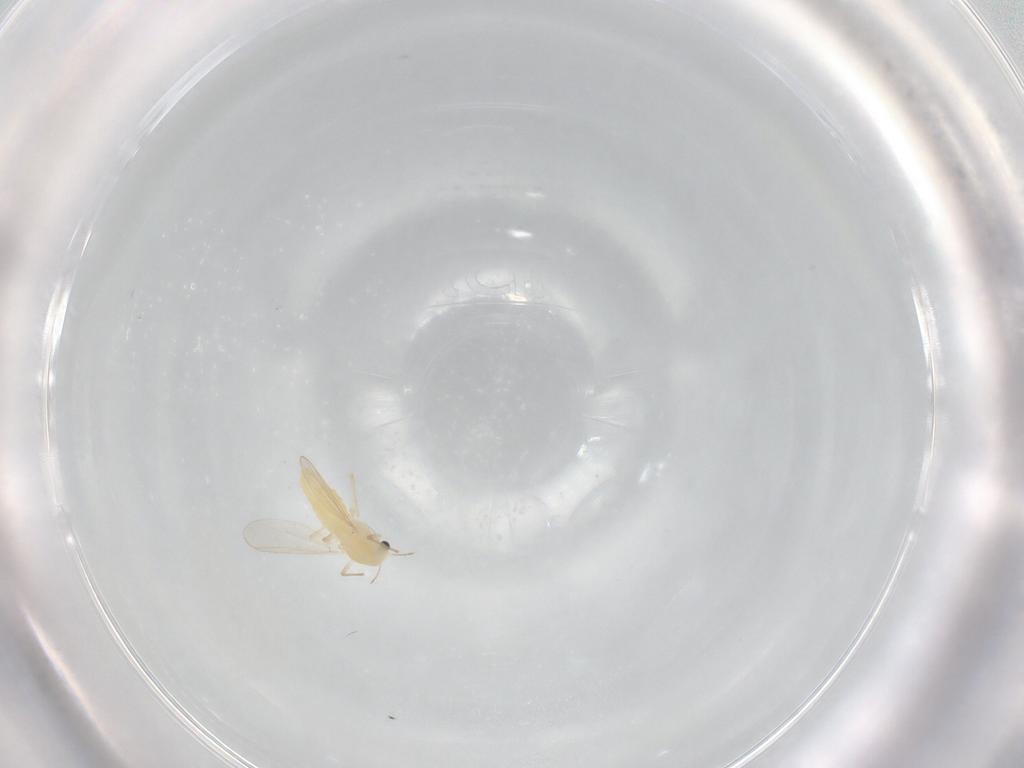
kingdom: Animalia
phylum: Arthropoda
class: Insecta
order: Diptera
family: Chironomidae
